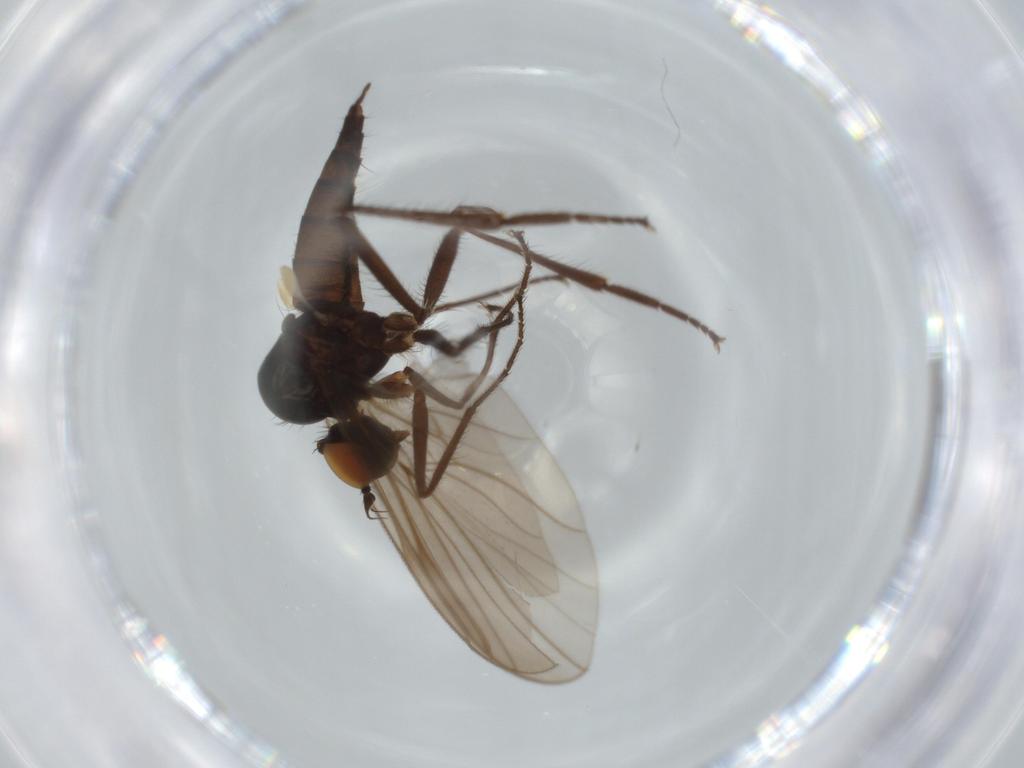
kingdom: Animalia
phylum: Arthropoda
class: Insecta
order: Diptera
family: Hybotidae
